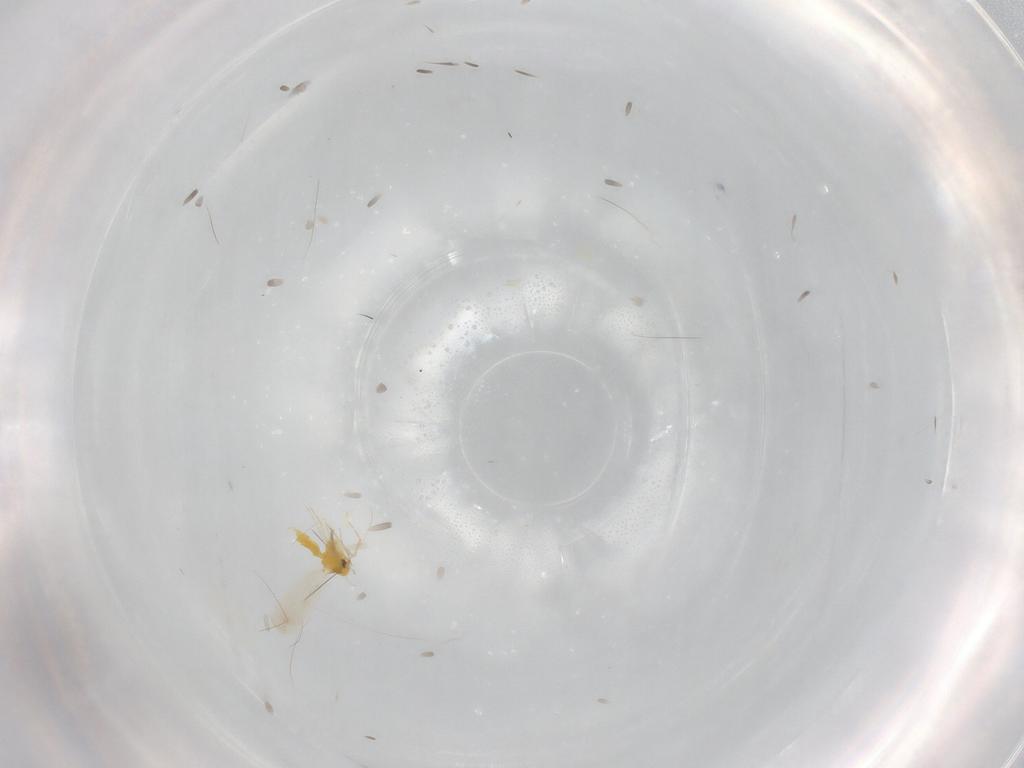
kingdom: Animalia
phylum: Arthropoda
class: Insecta
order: Hemiptera
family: Aleyrodidae
